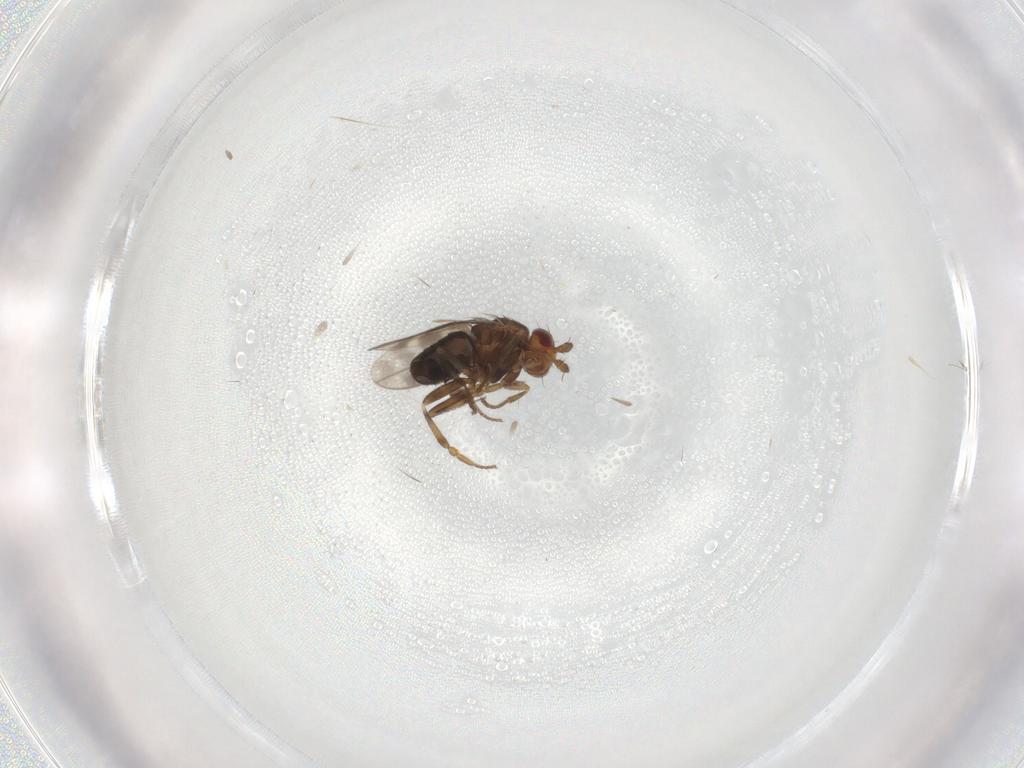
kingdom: Animalia
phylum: Arthropoda
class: Insecta
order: Diptera
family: Sphaeroceridae
